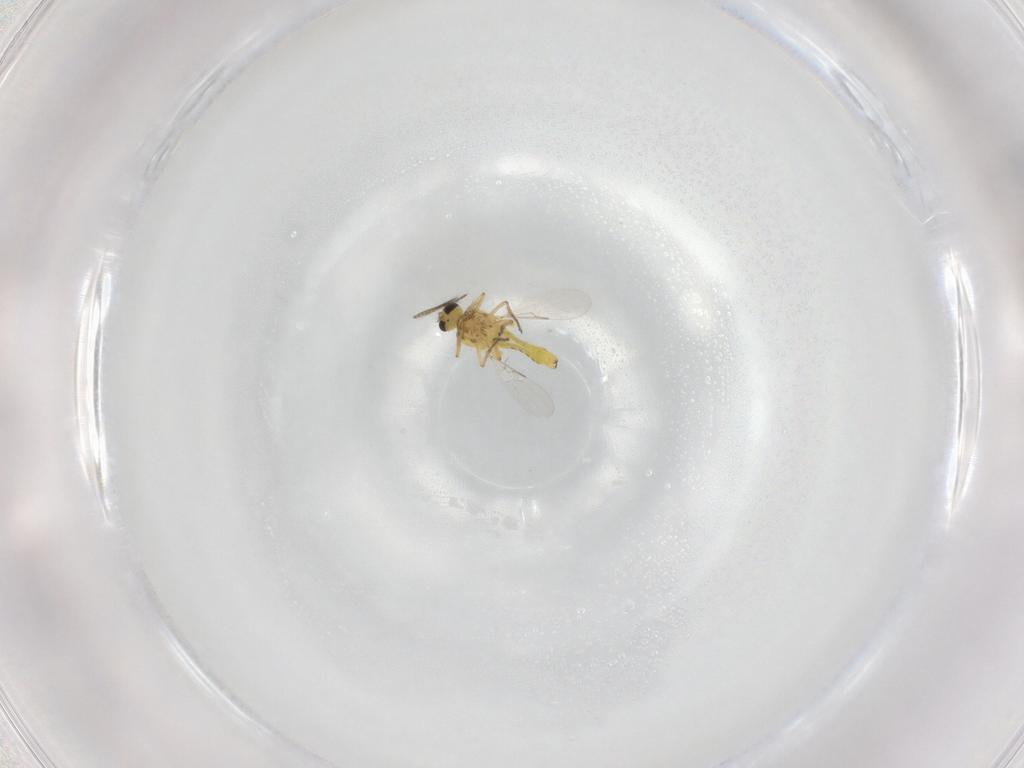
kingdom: Animalia
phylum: Arthropoda
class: Insecta
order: Diptera
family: Ceratopogonidae
